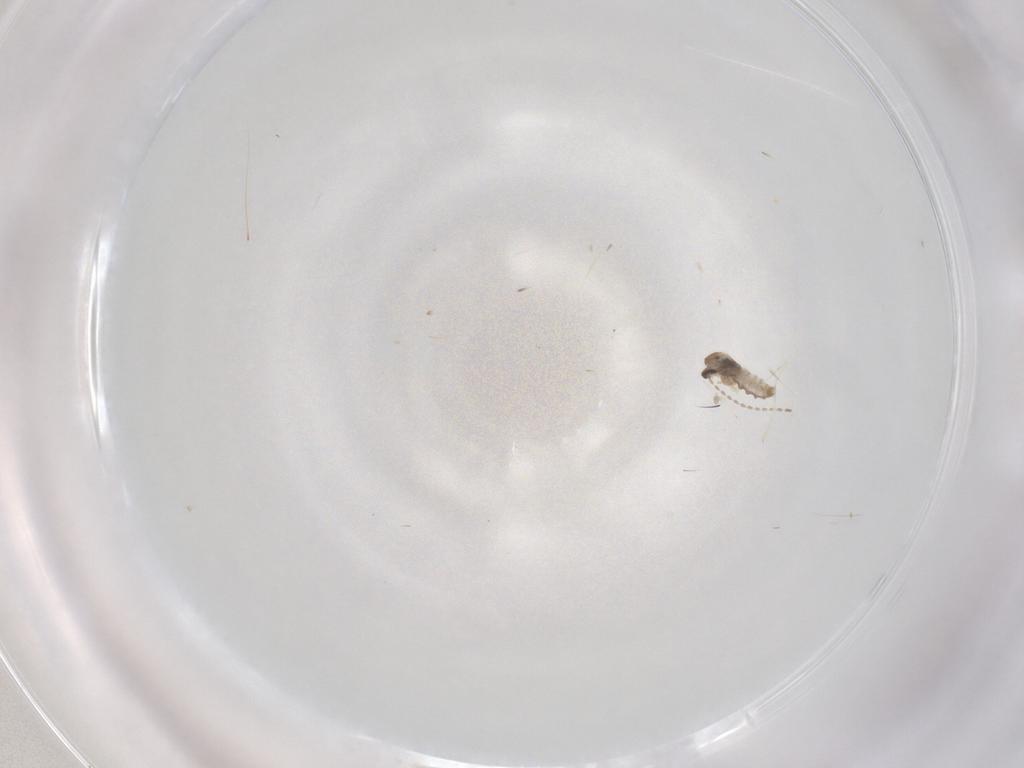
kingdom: Animalia
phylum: Arthropoda
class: Insecta
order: Diptera
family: Cecidomyiidae
